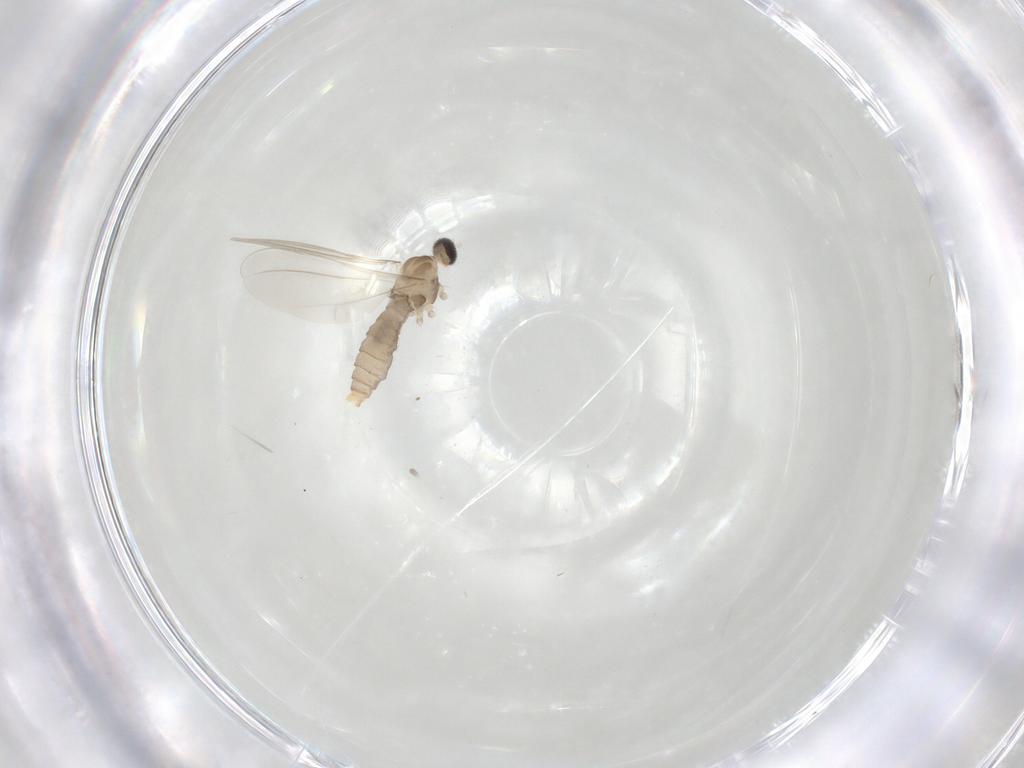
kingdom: Animalia
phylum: Arthropoda
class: Insecta
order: Diptera
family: Cecidomyiidae
